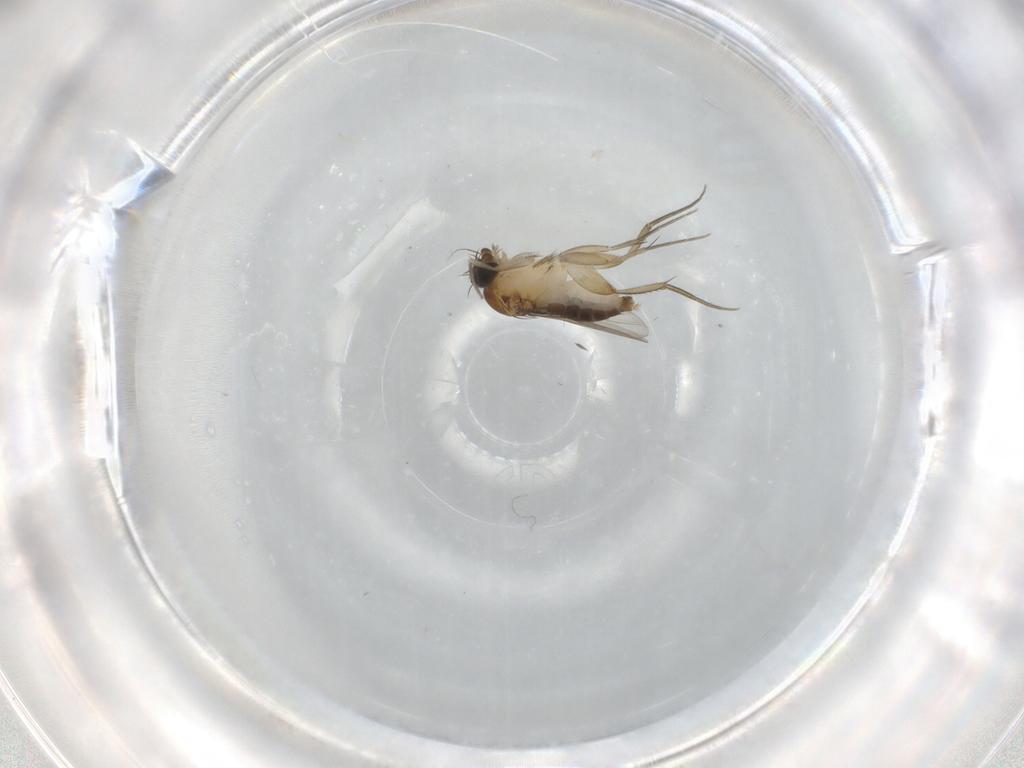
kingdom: Animalia
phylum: Arthropoda
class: Insecta
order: Diptera
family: Phoridae
